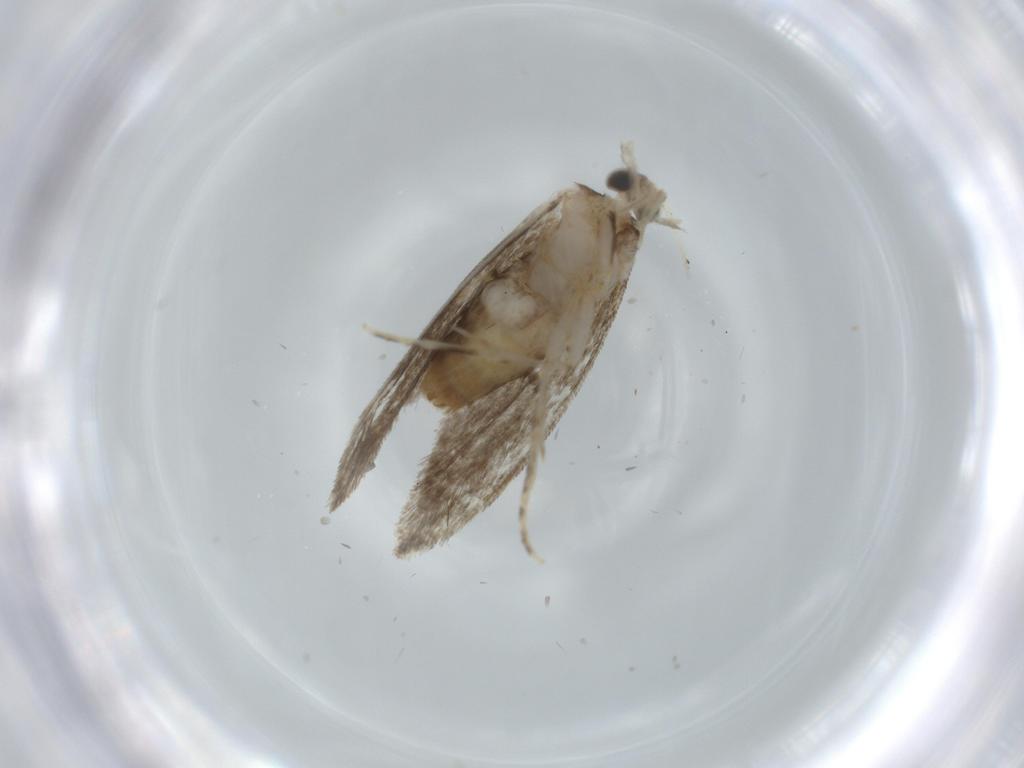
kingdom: Animalia
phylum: Arthropoda
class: Insecta
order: Lepidoptera
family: Tineidae
